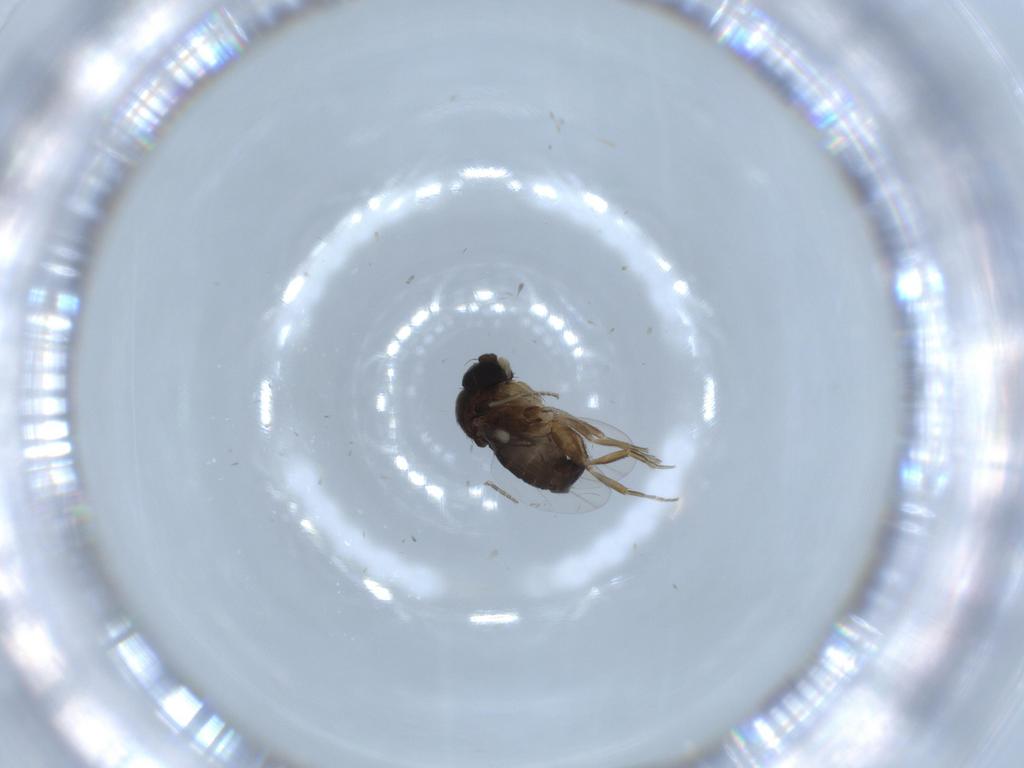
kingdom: Animalia
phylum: Arthropoda
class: Insecta
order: Diptera
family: Phoridae
